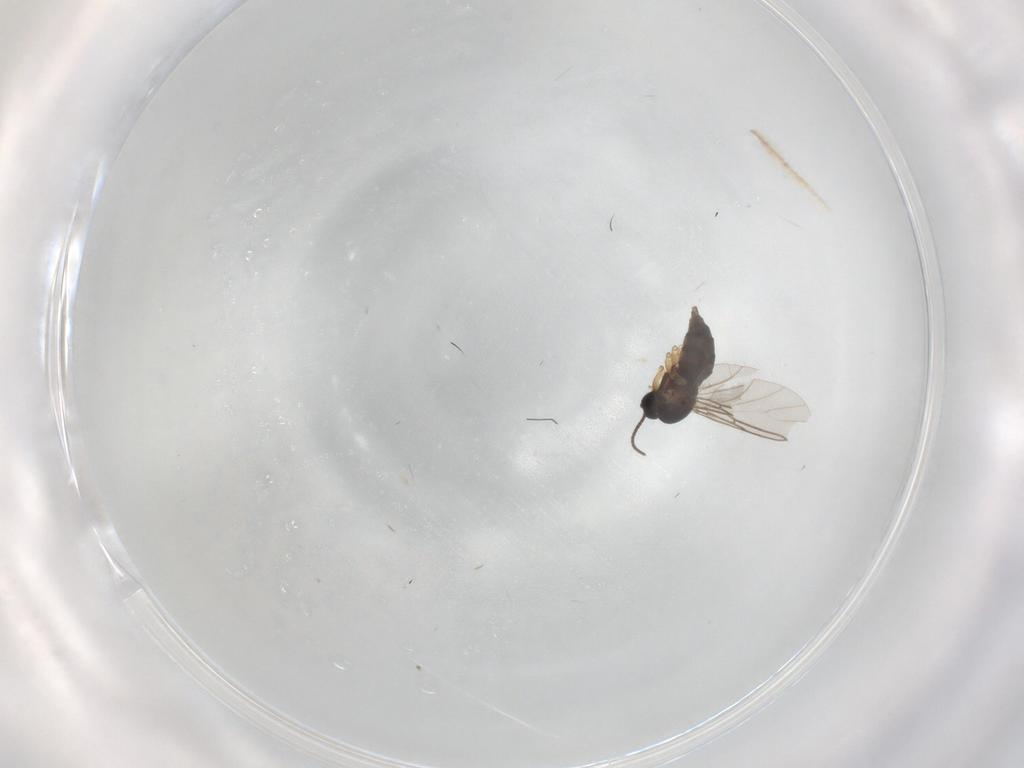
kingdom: Animalia
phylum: Arthropoda
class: Insecta
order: Diptera
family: Sciaridae
